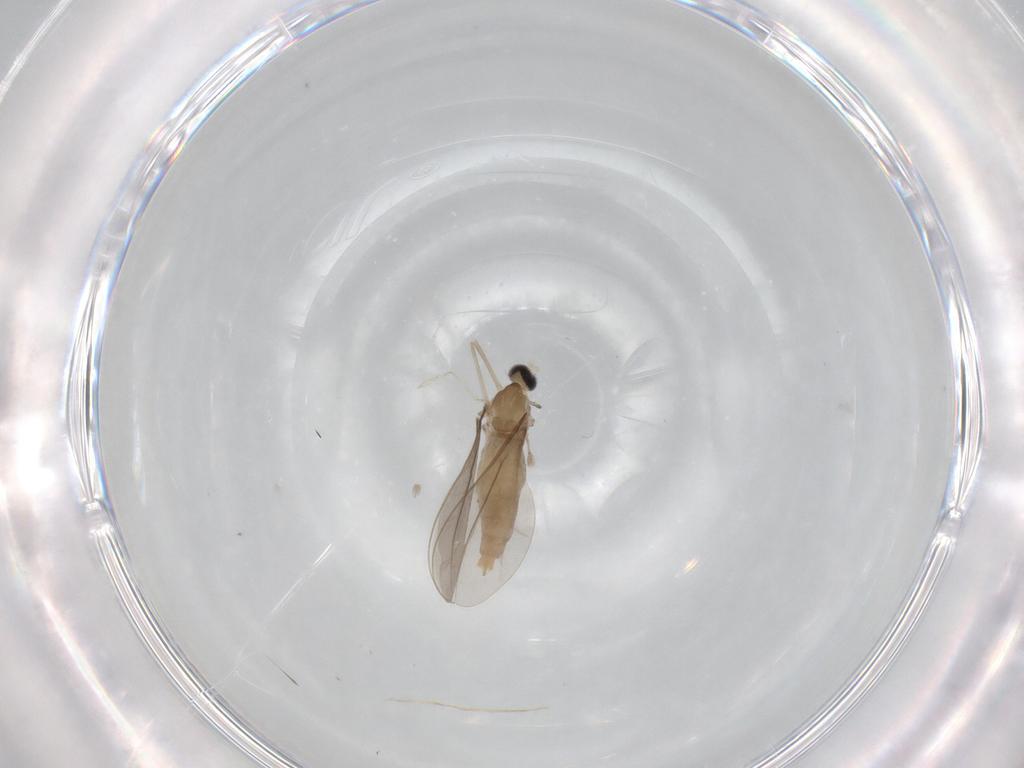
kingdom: Animalia
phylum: Arthropoda
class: Insecta
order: Diptera
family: Cecidomyiidae
